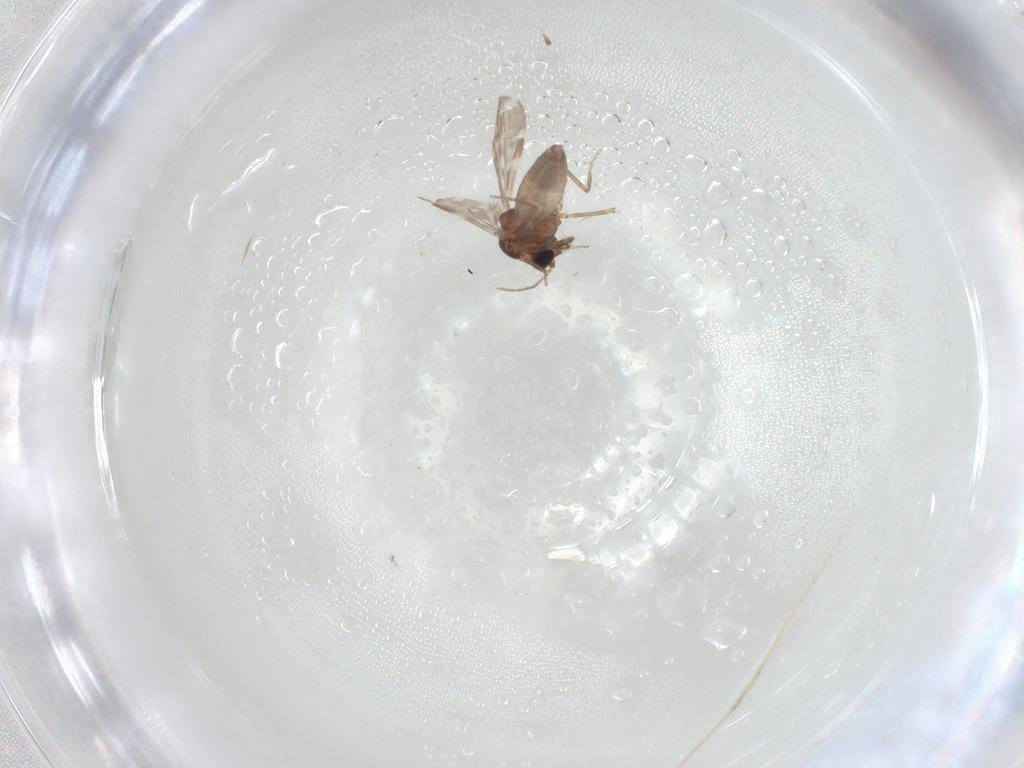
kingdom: Animalia
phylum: Arthropoda
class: Insecta
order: Diptera
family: Ceratopogonidae
